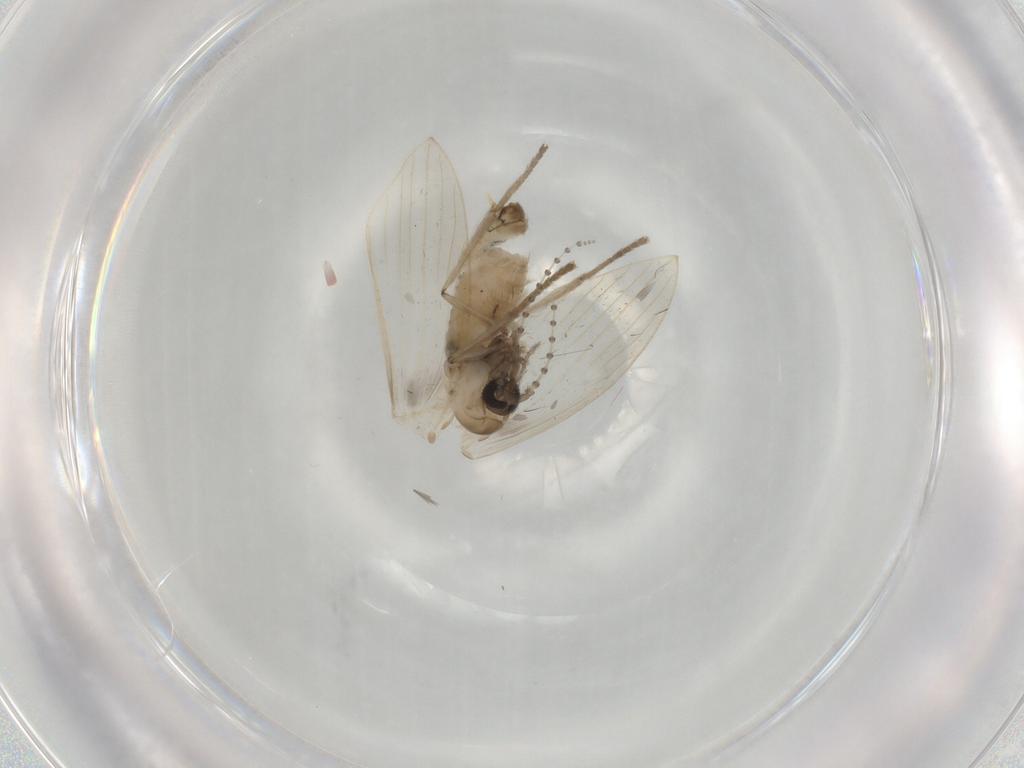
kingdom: Animalia
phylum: Arthropoda
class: Insecta
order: Diptera
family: Psychodidae
